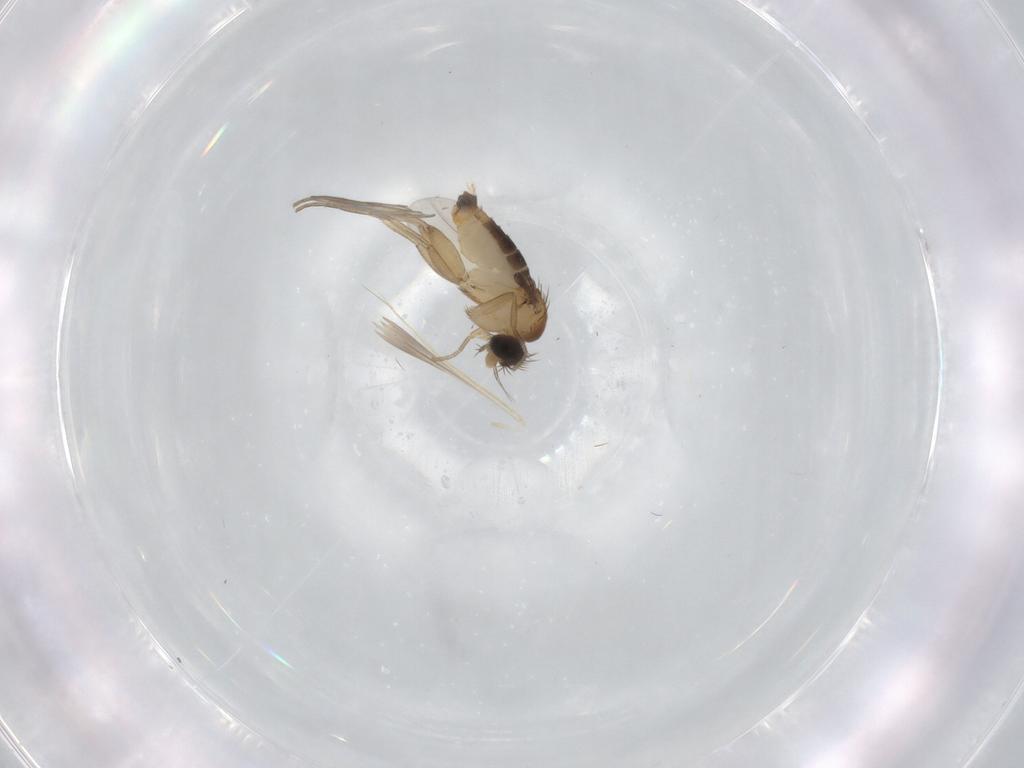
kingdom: Animalia
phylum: Arthropoda
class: Insecta
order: Diptera
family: Phoridae
